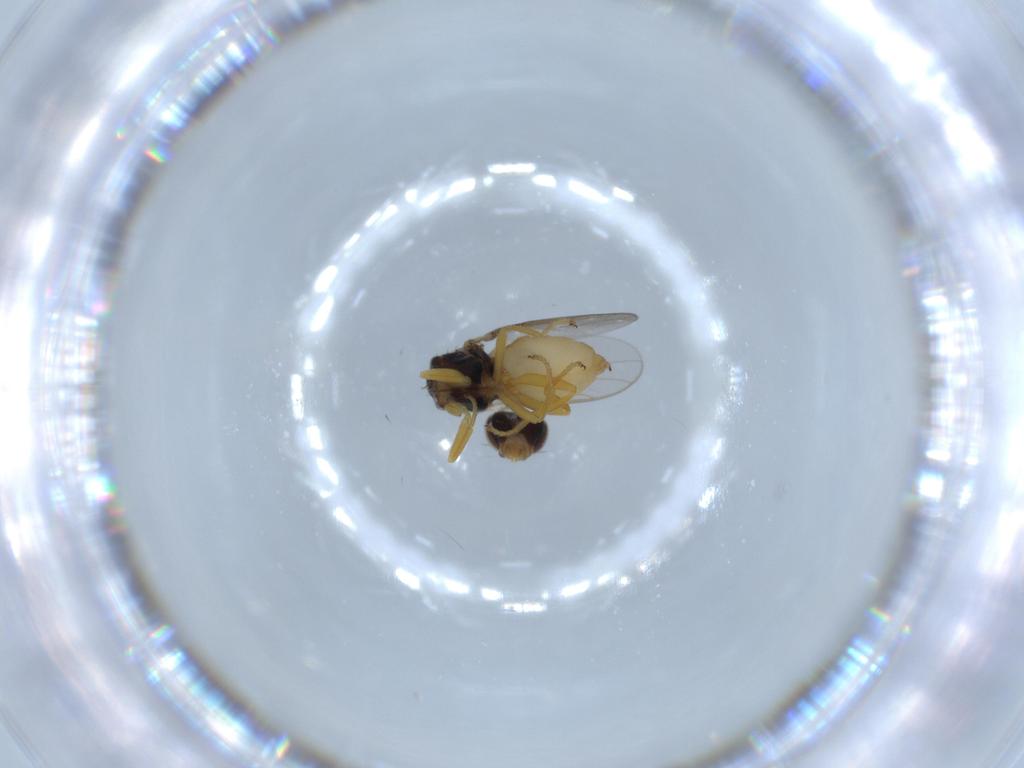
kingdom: Animalia
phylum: Arthropoda
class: Insecta
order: Diptera
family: Chloropidae
